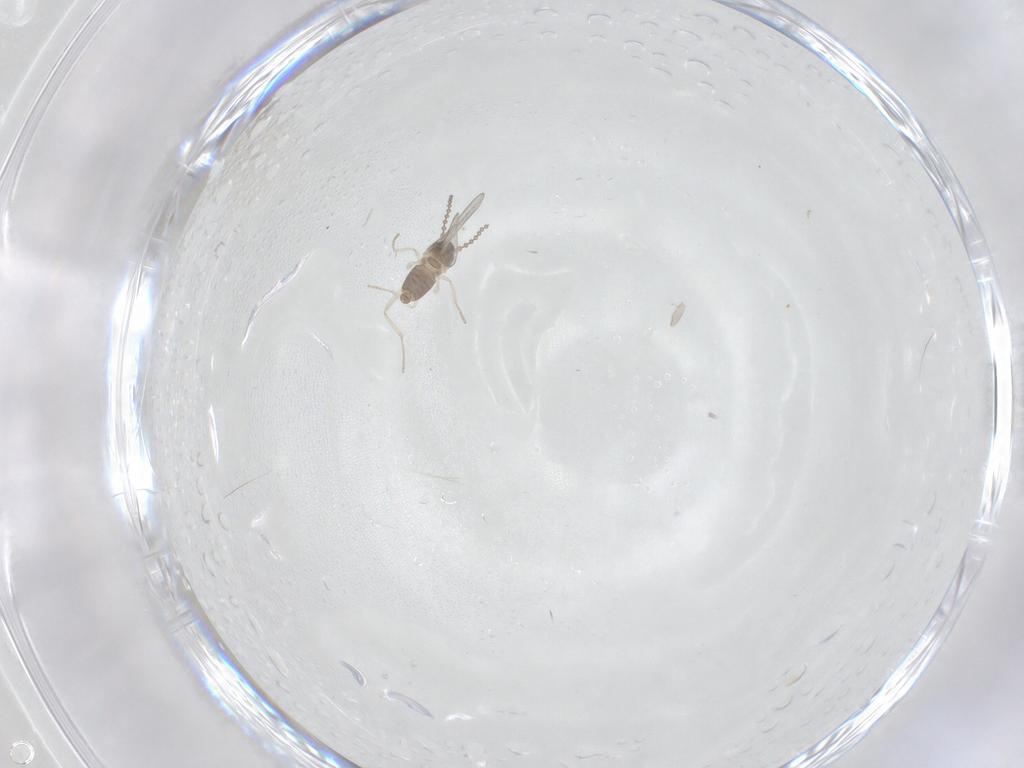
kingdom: Animalia
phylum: Arthropoda
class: Insecta
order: Diptera
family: Cecidomyiidae
